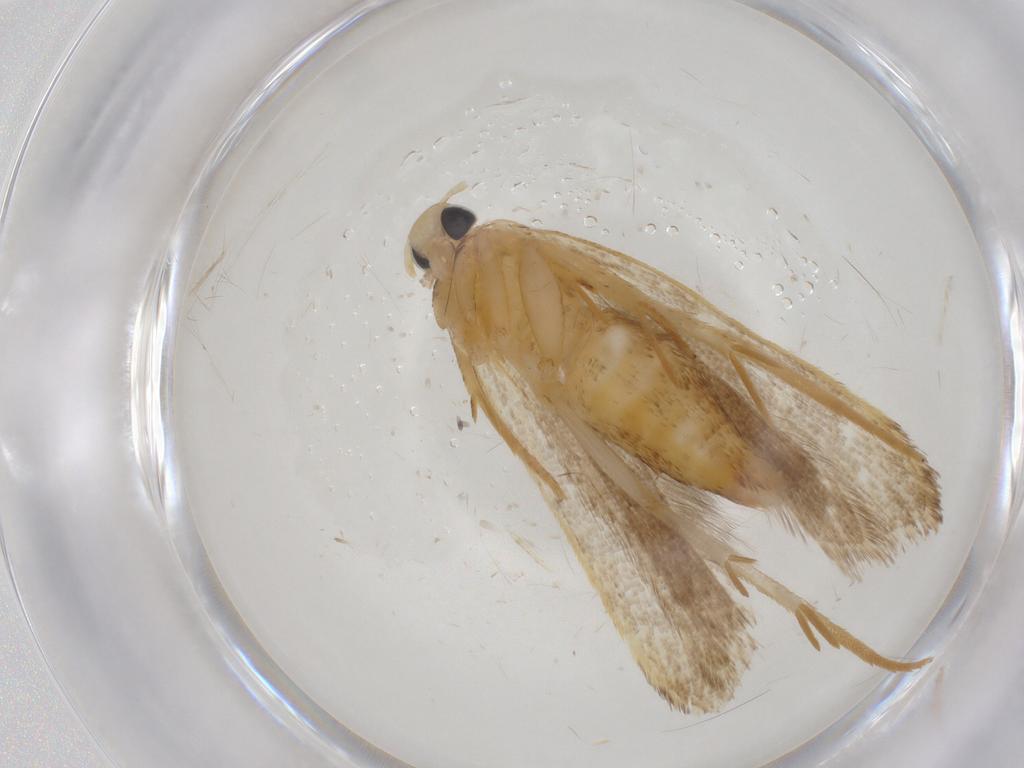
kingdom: Animalia
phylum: Arthropoda
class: Insecta
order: Lepidoptera
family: Gelechiidae
